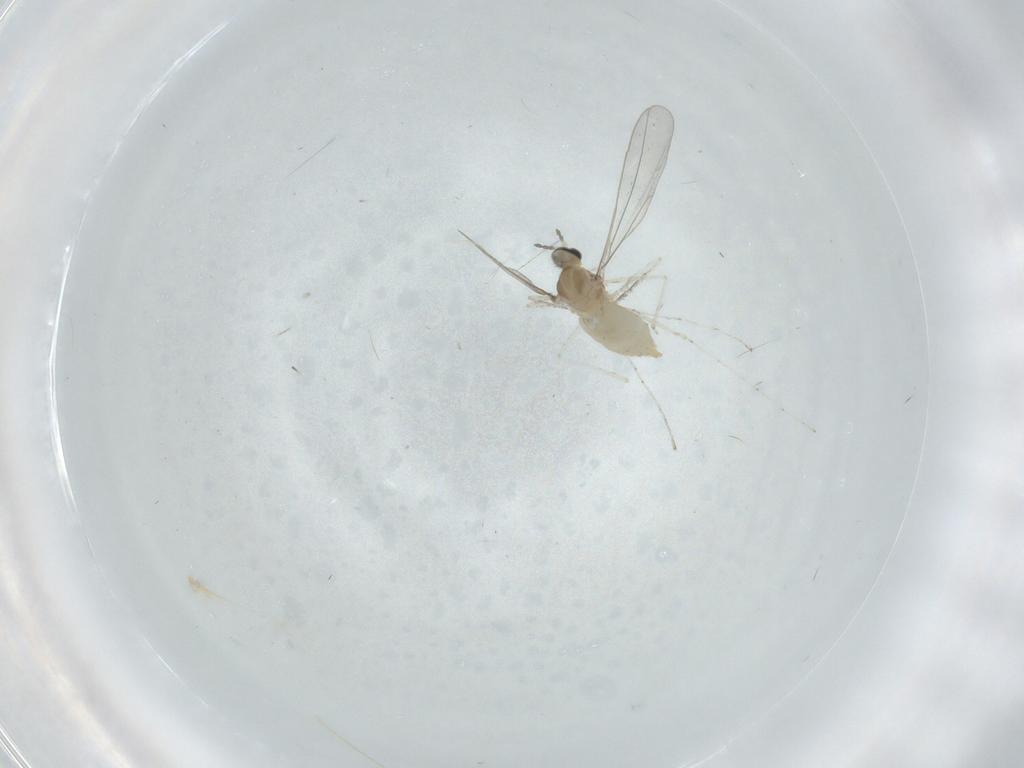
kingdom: Animalia
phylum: Arthropoda
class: Insecta
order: Diptera
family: Cecidomyiidae
